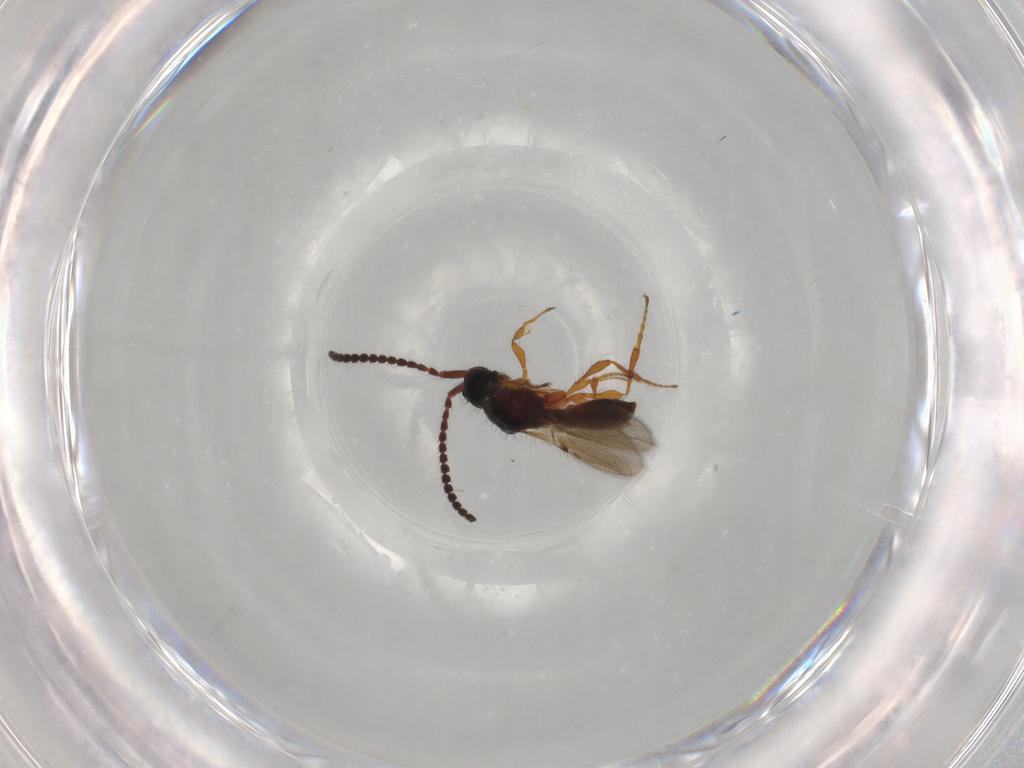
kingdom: Animalia
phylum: Arthropoda
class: Insecta
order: Hymenoptera
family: Diapriidae
